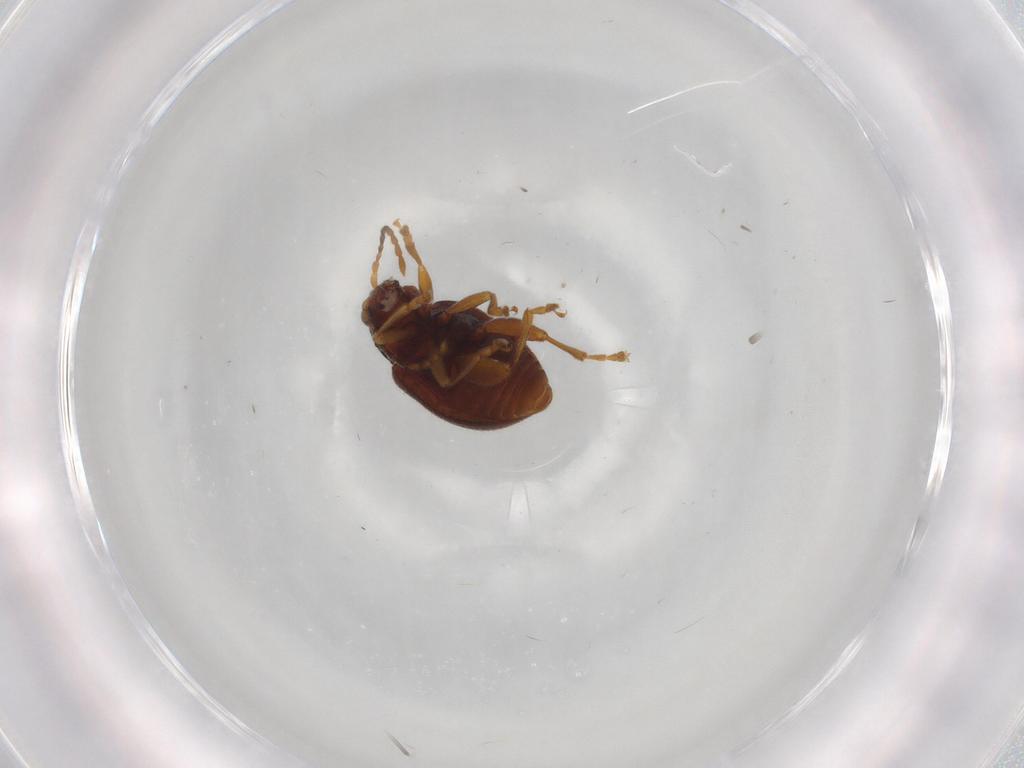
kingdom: Animalia
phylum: Arthropoda
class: Insecta
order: Coleoptera
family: Chrysomelidae
